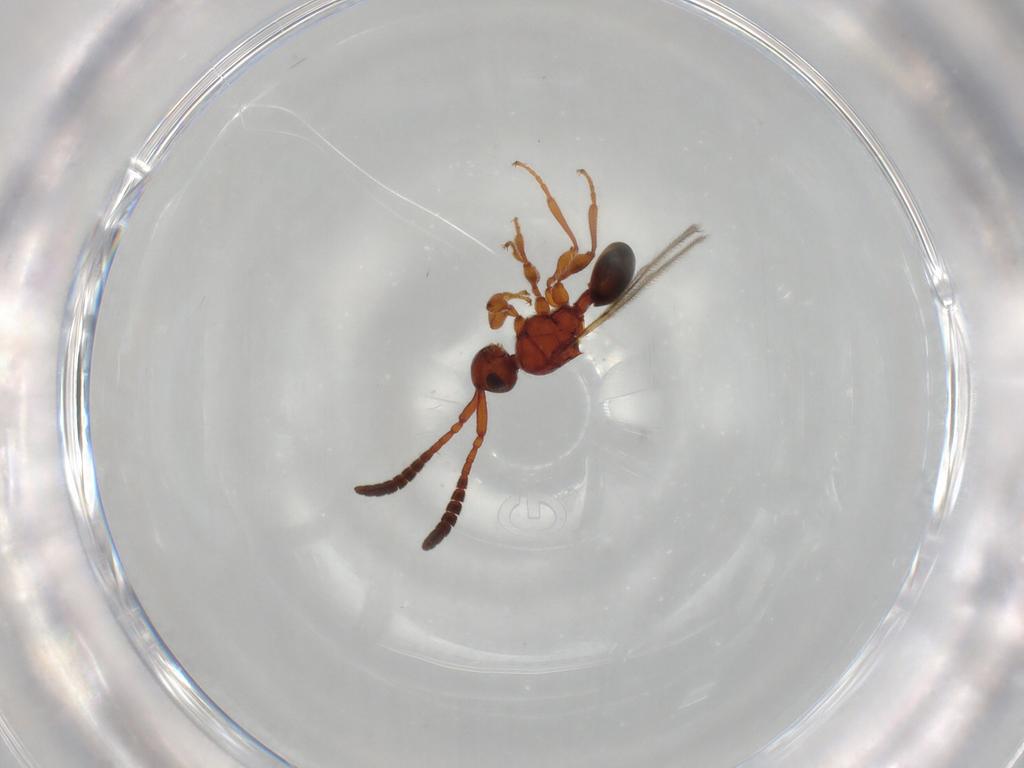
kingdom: Animalia
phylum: Arthropoda
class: Insecta
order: Hymenoptera
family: Diapriidae
